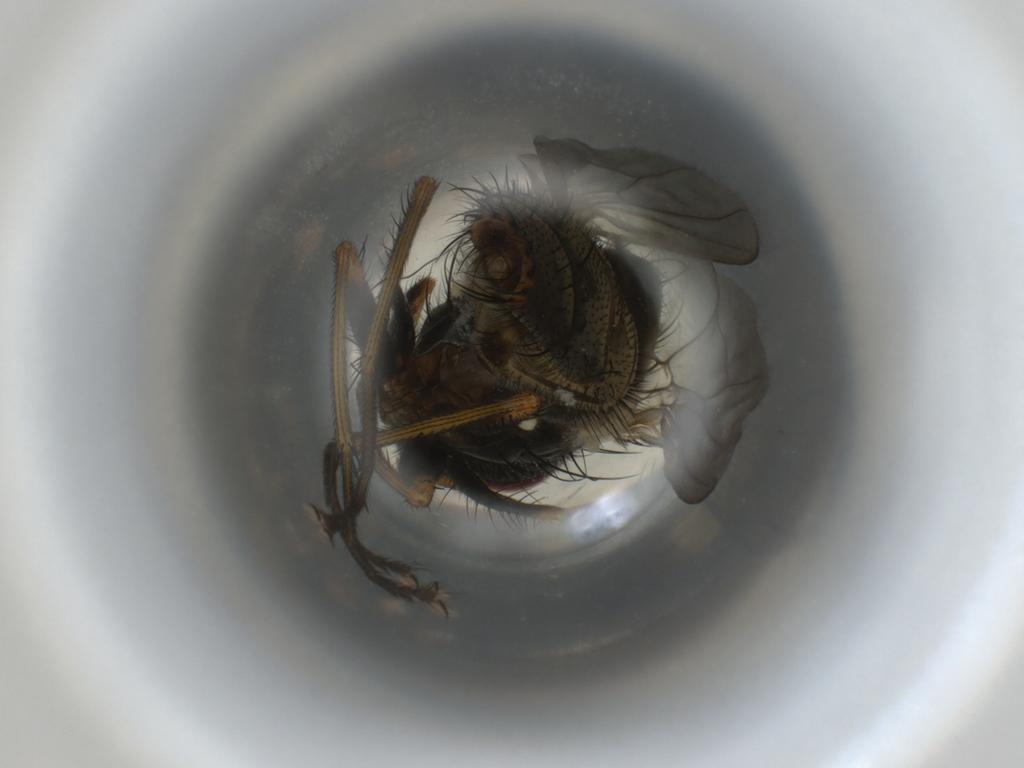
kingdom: Animalia
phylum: Arthropoda
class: Insecta
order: Diptera
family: Muscidae
